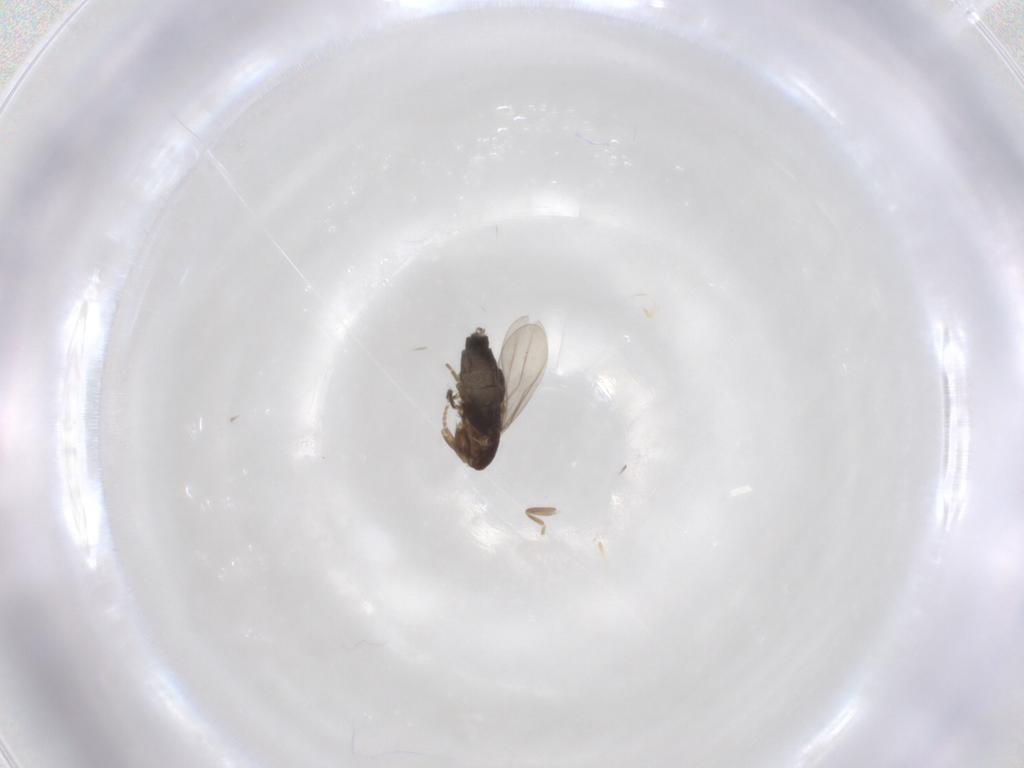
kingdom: Animalia
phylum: Arthropoda
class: Insecta
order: Diptera
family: Phoridae
